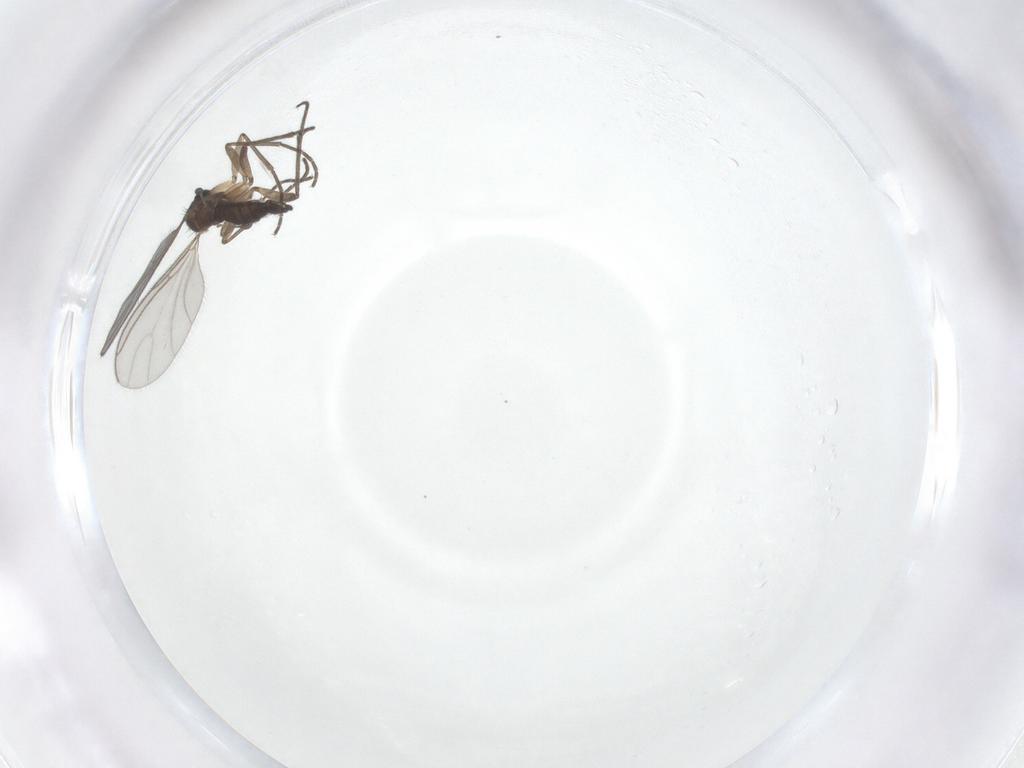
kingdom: Animalia
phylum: Arthropoda
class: Insecta
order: Diptera
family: Sciaridae
